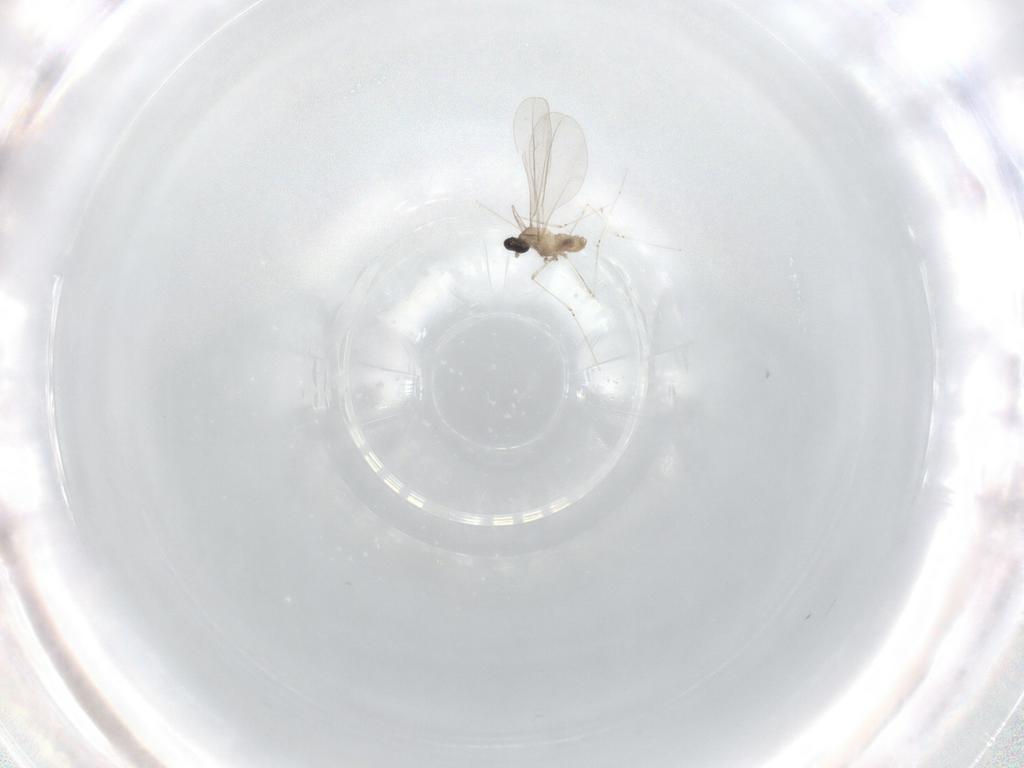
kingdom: Animalia
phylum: Arthropoda
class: Insecta
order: Diptera
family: Cecidomyiidae
